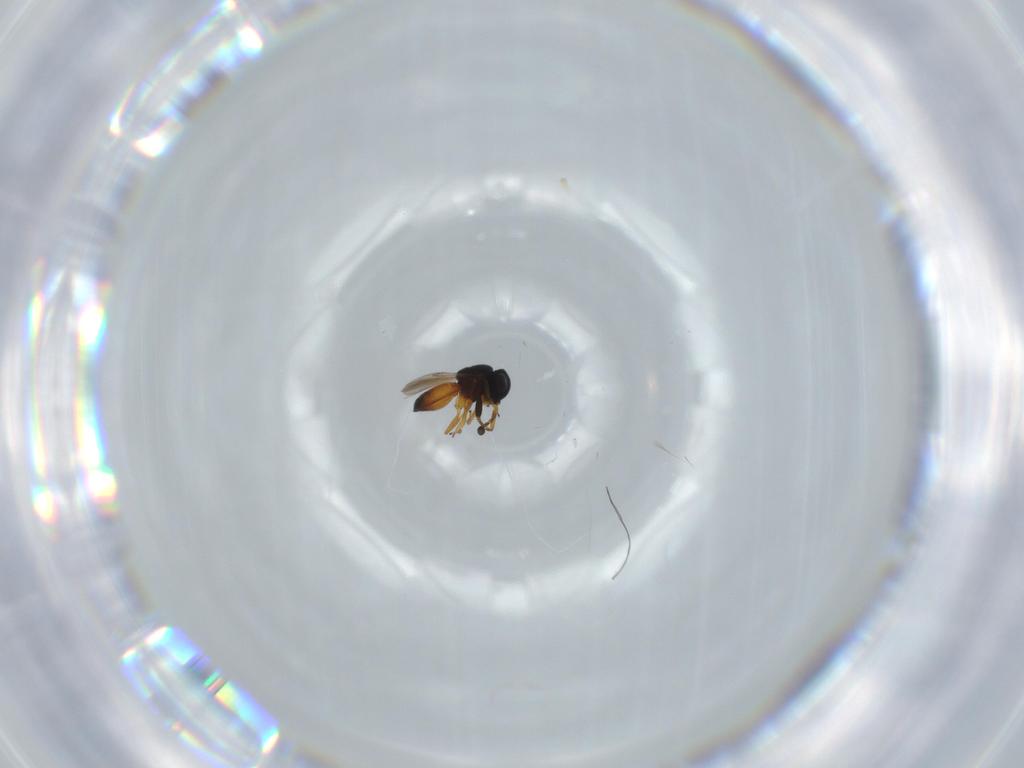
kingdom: Animalia
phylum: Arthropoda
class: Insecta
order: Hymenoptera
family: Scelionidae
